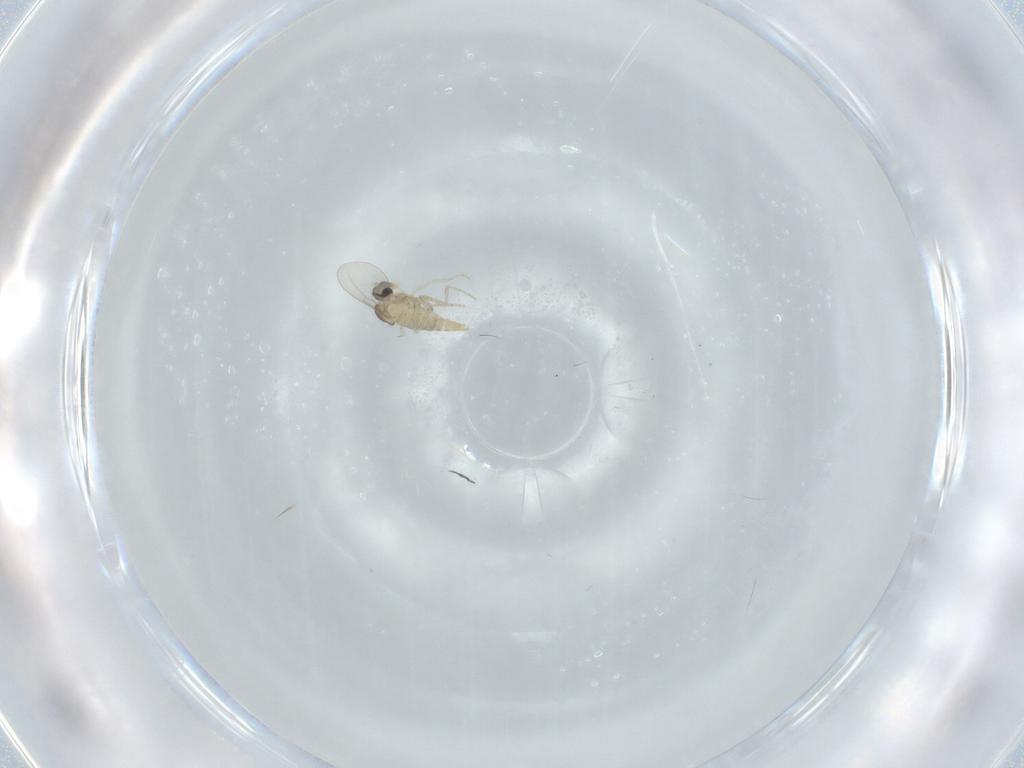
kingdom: Animalia
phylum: Arthropoda
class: Insecta
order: Diptera
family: Cecidomyiidae
